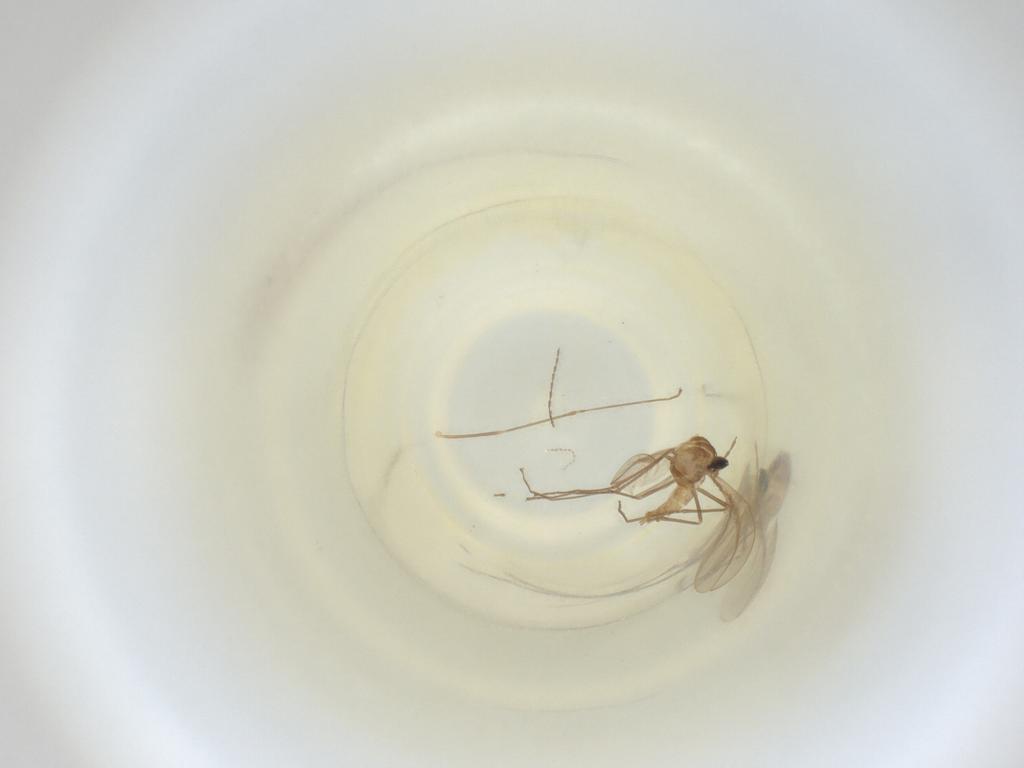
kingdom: Animalia
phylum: Arthropoda
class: Insecta
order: Diptera
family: Cecidomyiidae
